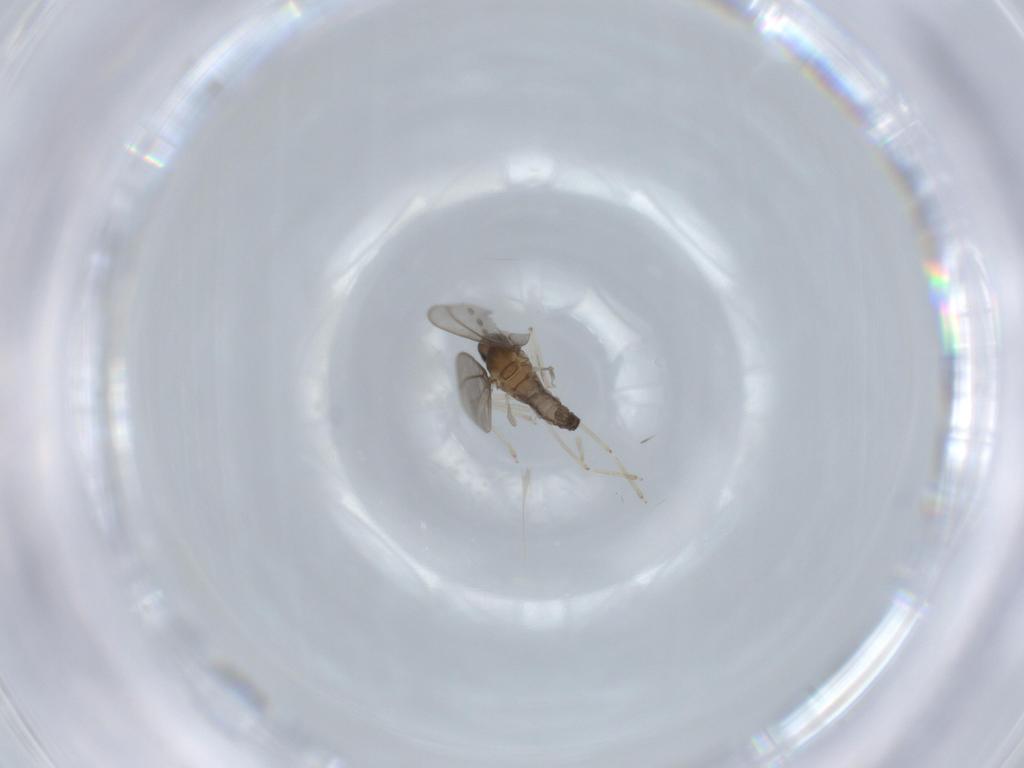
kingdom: Animalia
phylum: Arthropoda
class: Insecta
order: Diptera
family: Cecidomyiidae
